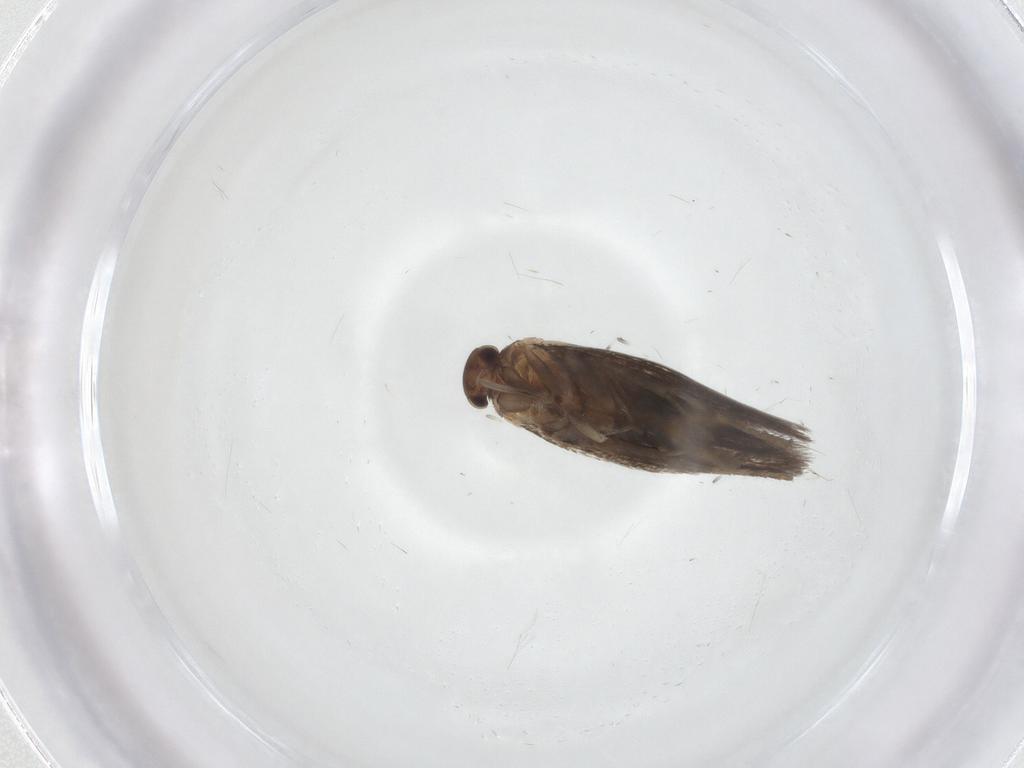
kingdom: Animalia
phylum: Arthropoda
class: Insecta
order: Lepidoptera
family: Elachistidae
